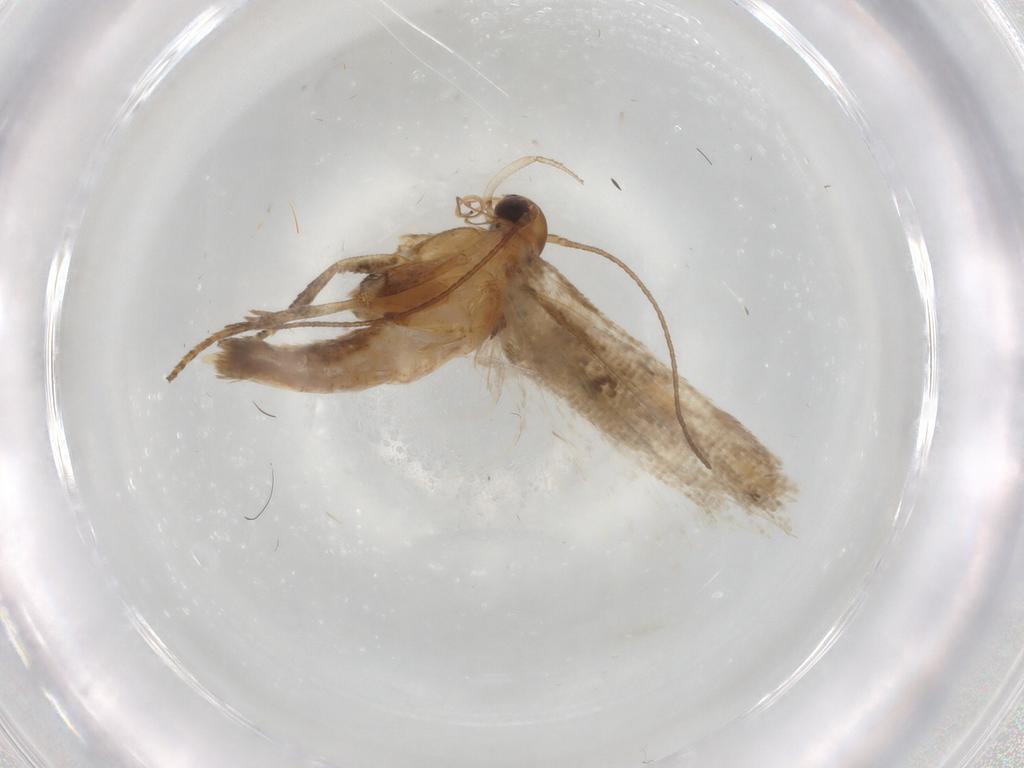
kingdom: Animalia
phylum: Arthropoda
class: Insecta
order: Lepidoptera
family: Gelechiidae
